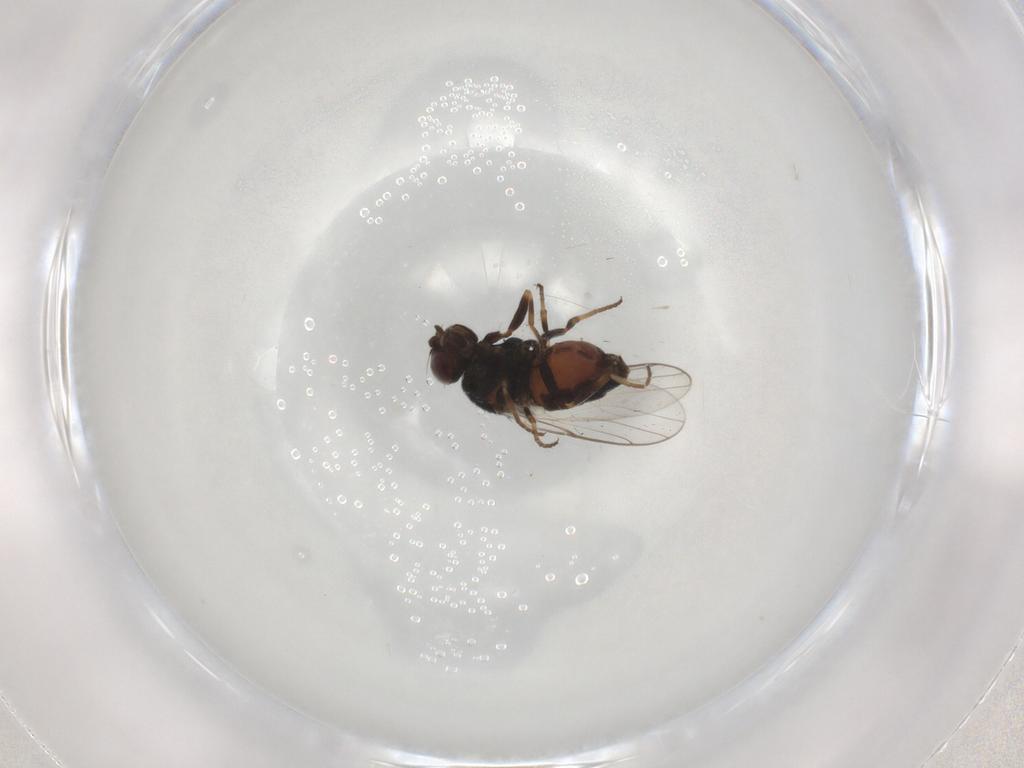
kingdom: Animalia
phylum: Arthropoda
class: Insecta
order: Diptera
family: Chloropidae
